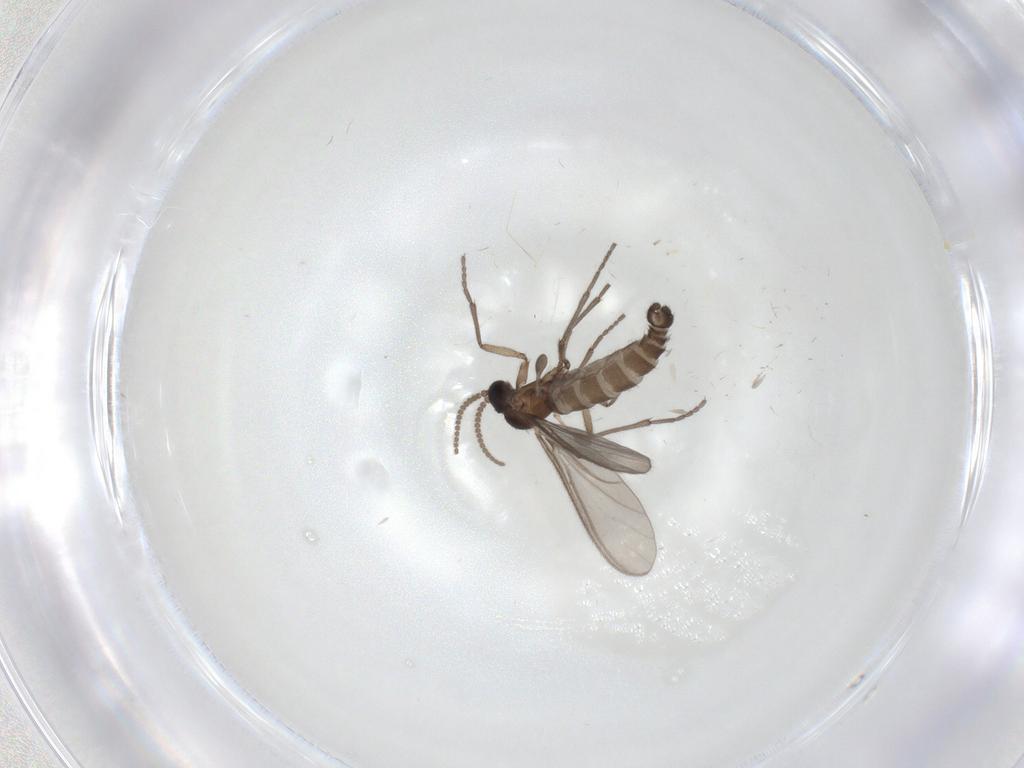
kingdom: Animalia
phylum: Arthropoda
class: Insecta
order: Diptera
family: Sciaridae
